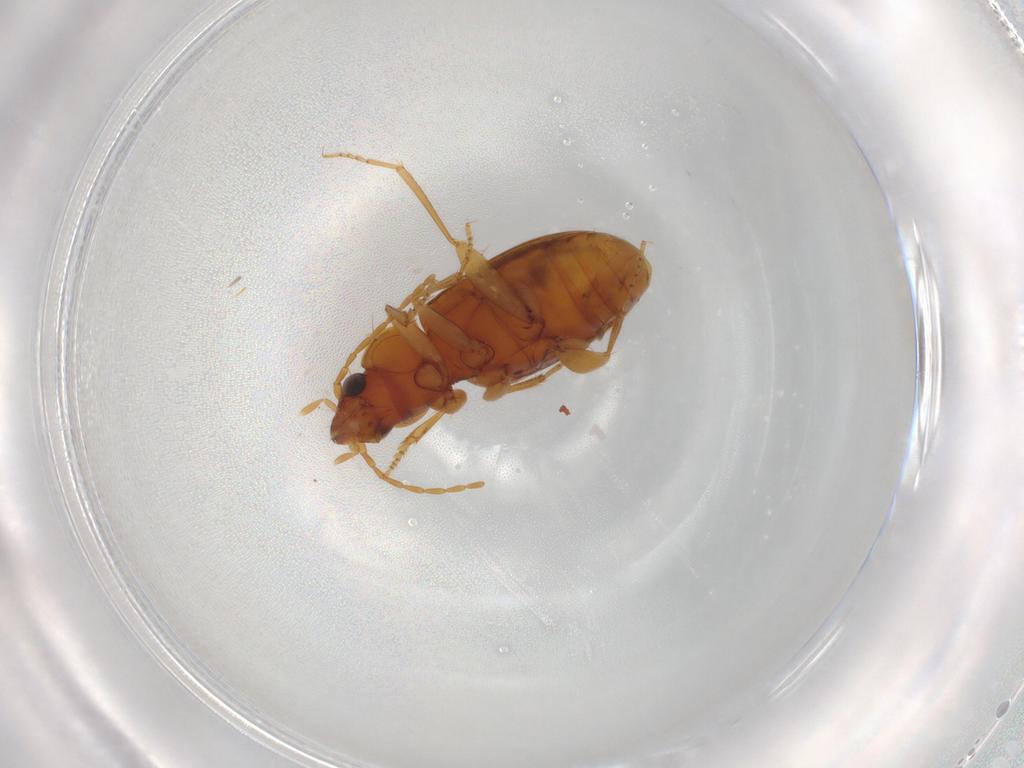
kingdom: Animalia
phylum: Arthropoda
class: Insecta
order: Coleoptera
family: Carabidae
